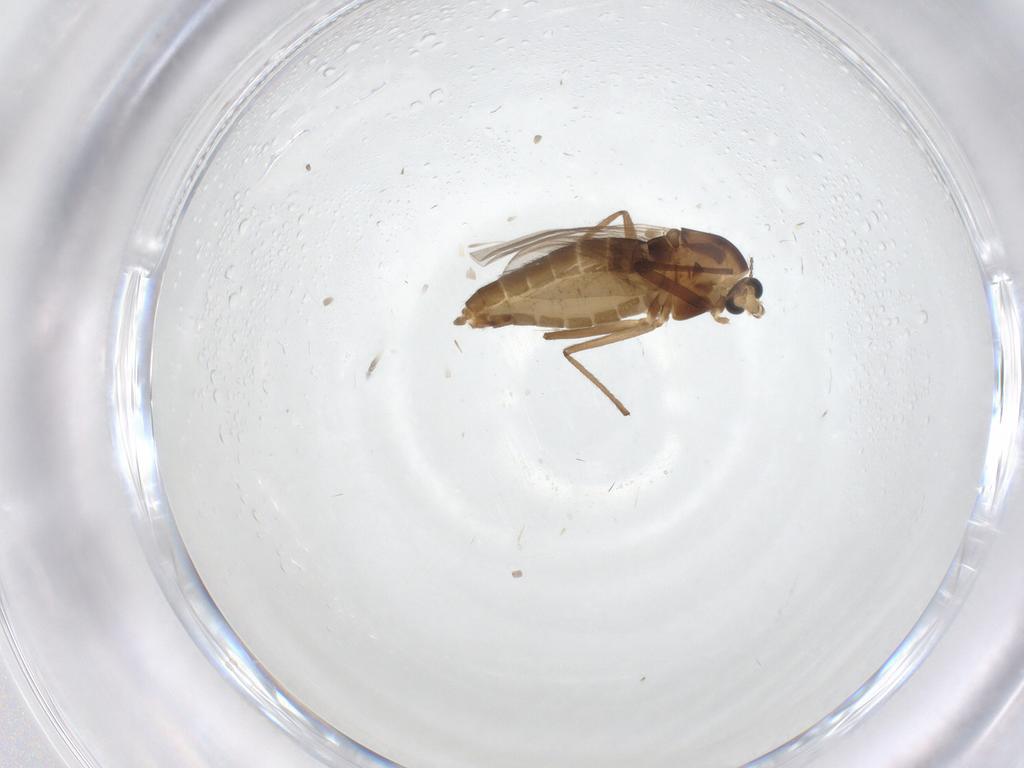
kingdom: Animalia
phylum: Arthropoda
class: Insecta
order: Diptera
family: Chironomidae
